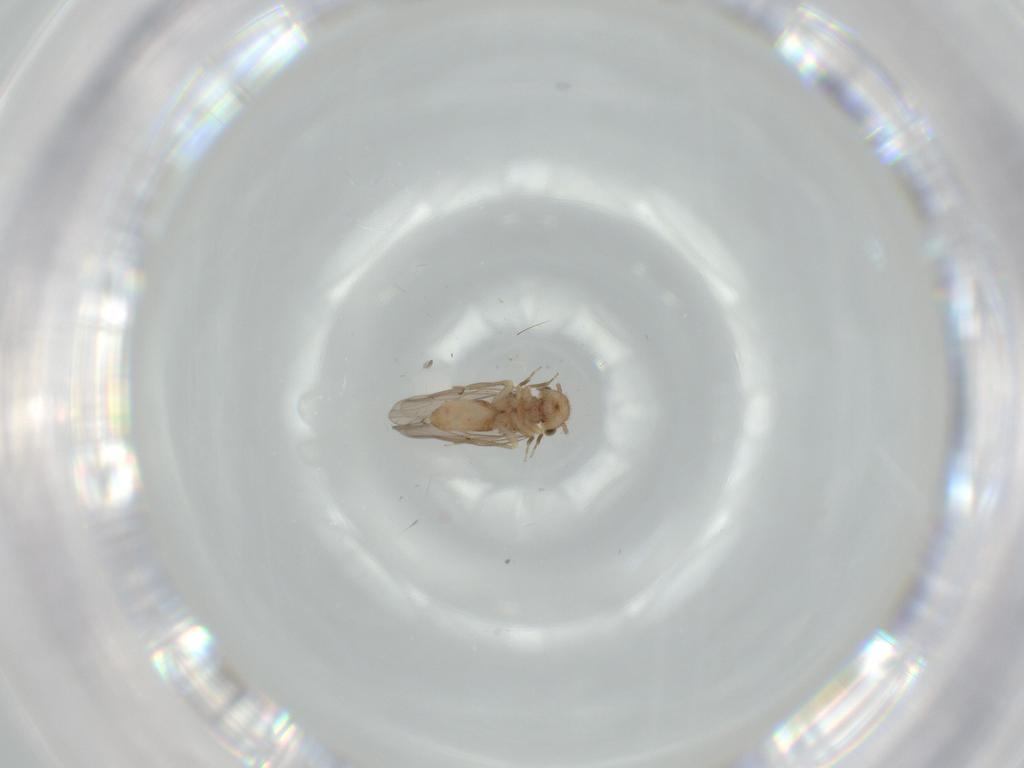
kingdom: Animalia
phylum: Arthropoda
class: Insecta
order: Psocodea
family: Ectopsocidae
